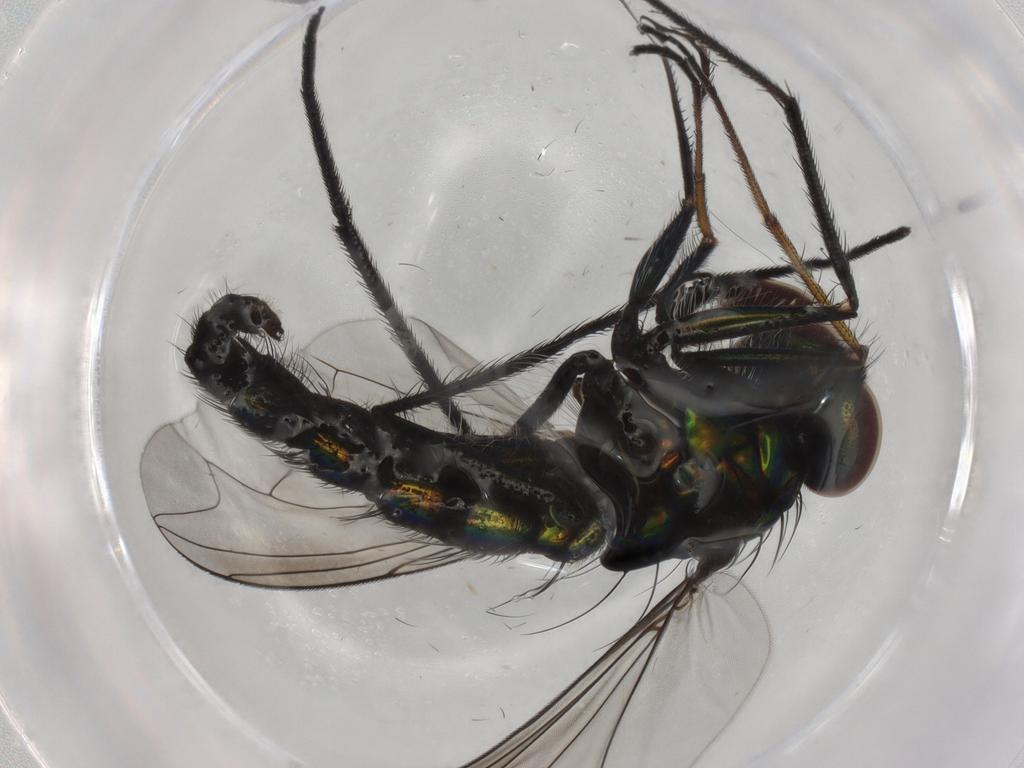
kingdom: Animalia
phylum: Arthropoda
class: Insecta
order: Diptera
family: Dolichopodidae
